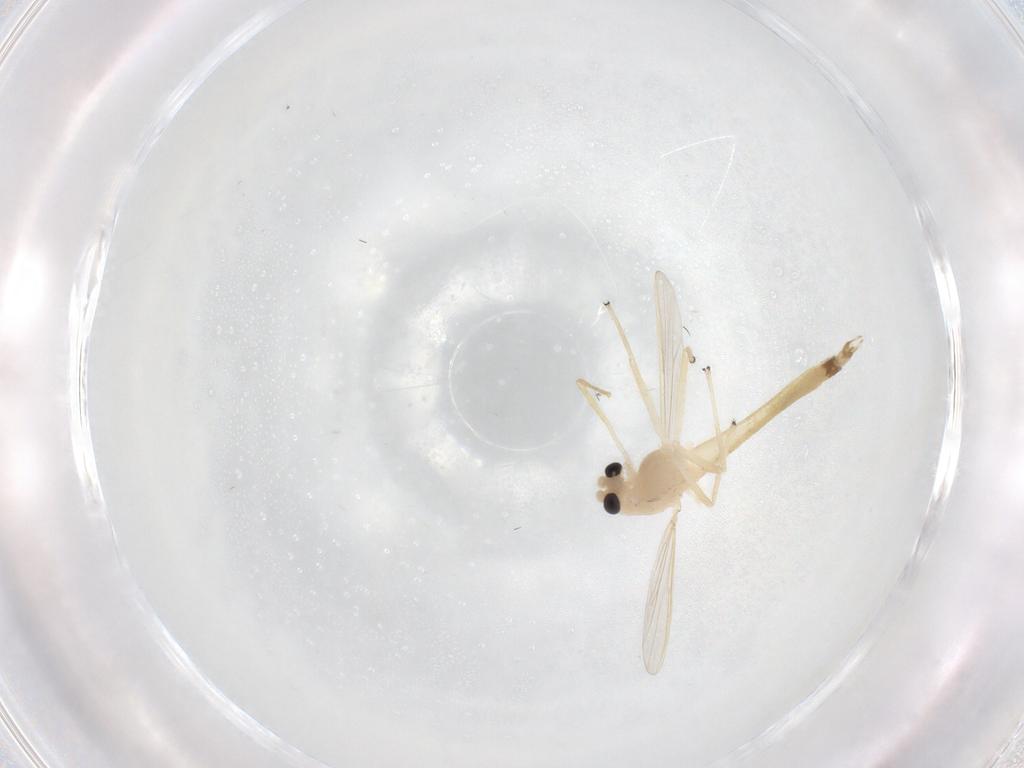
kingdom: Animalia
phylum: Arthropoda
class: Insecta
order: Diptera
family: Chironomidae
